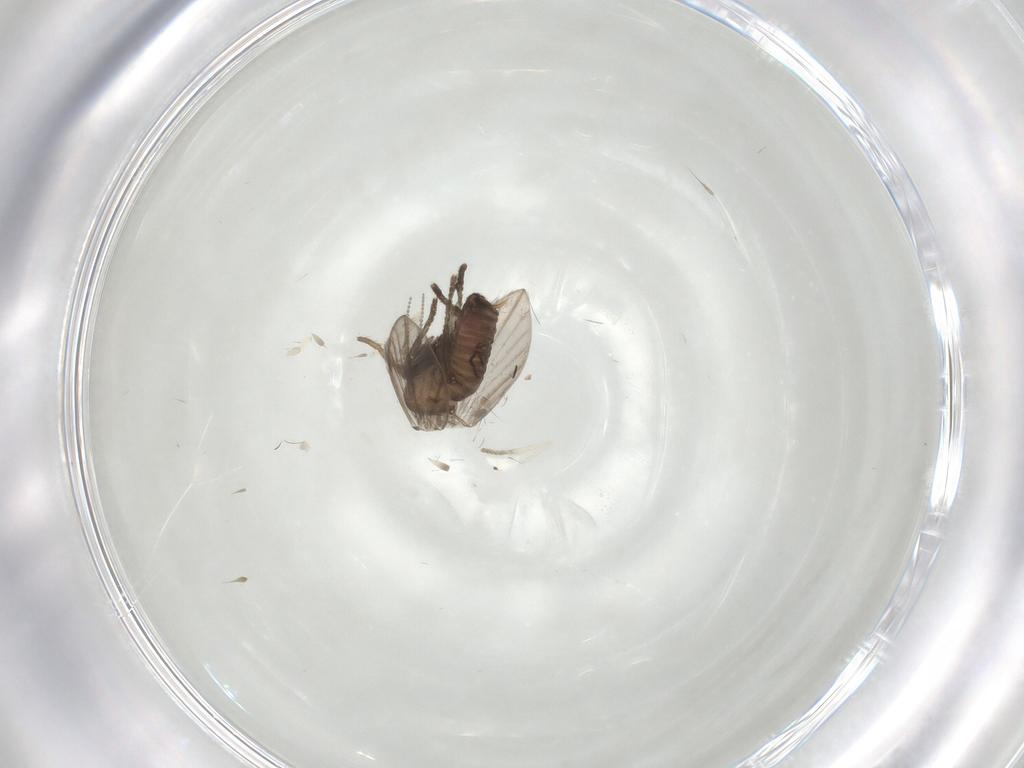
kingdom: Animalia
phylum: Arthropoda
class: Insecta
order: Diptera
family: Psychodidae
